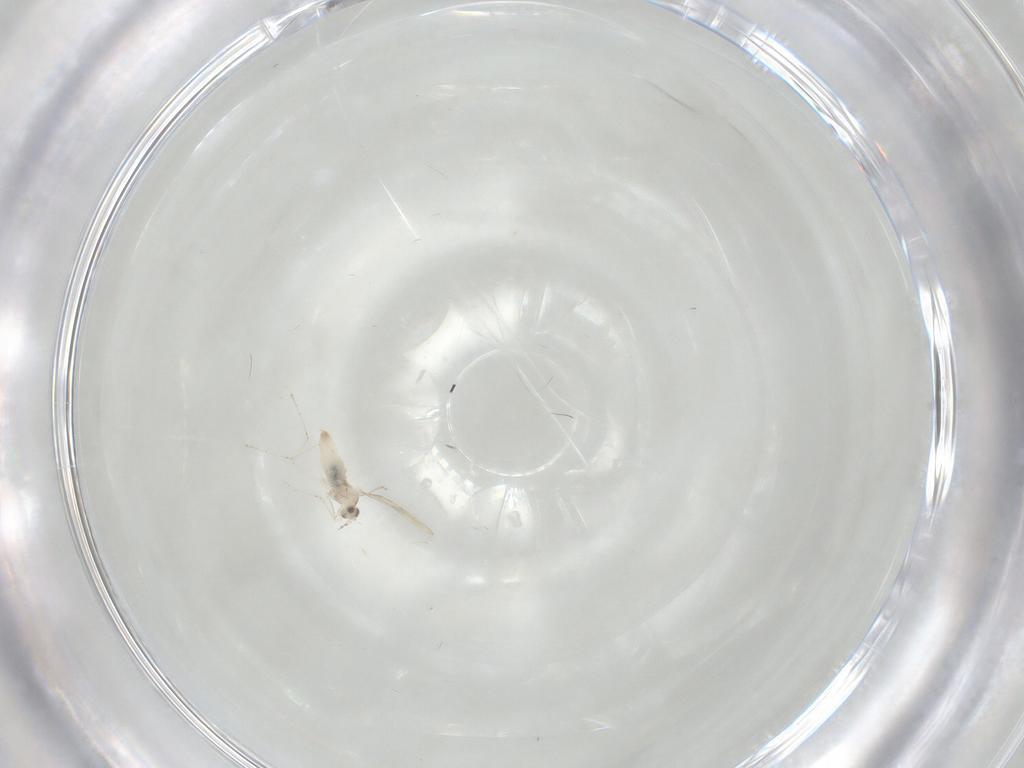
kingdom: Animalia
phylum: Arthropoda
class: Insecta
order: Diptera
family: Cecidomyiidae
